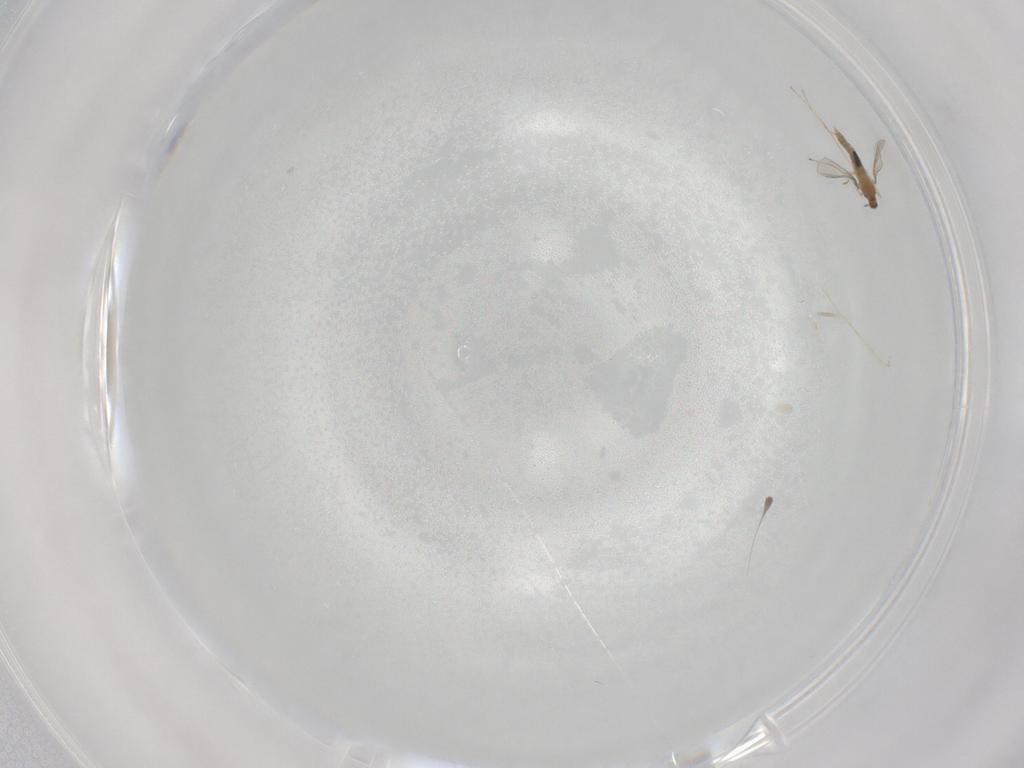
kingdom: Animalia
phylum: Arthropoda
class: Insecta
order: Diptera
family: Cecidomyiidae
